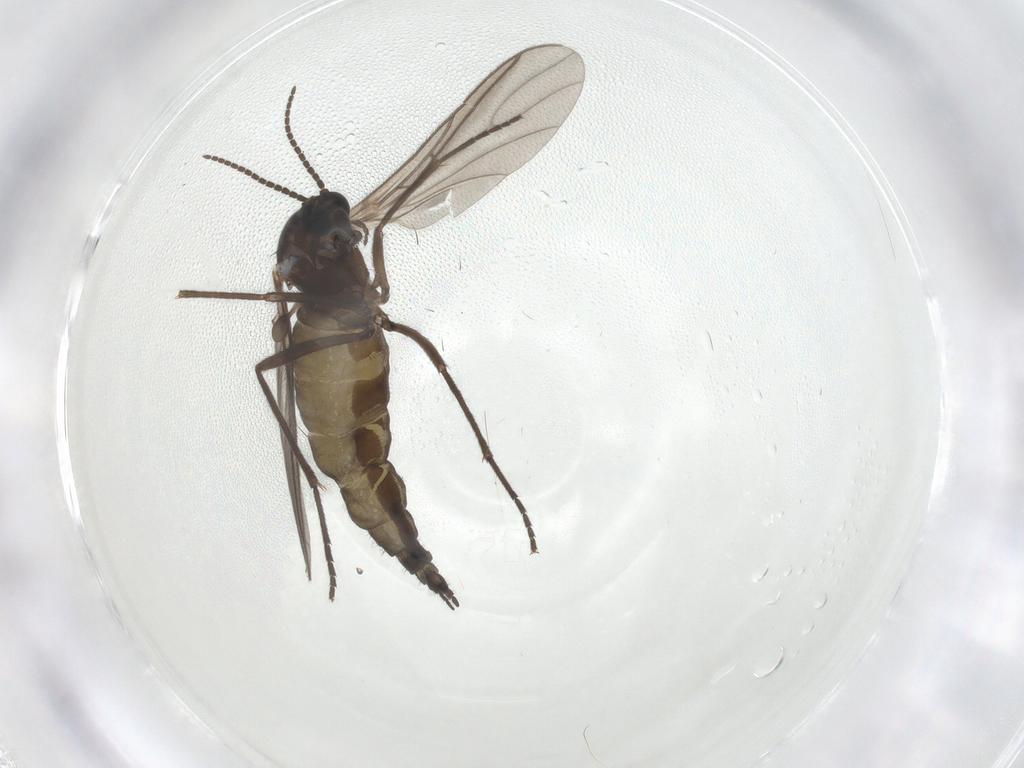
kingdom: Animalia
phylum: Arthropoda
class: Insecta
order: Diptera
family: Sciaridae
